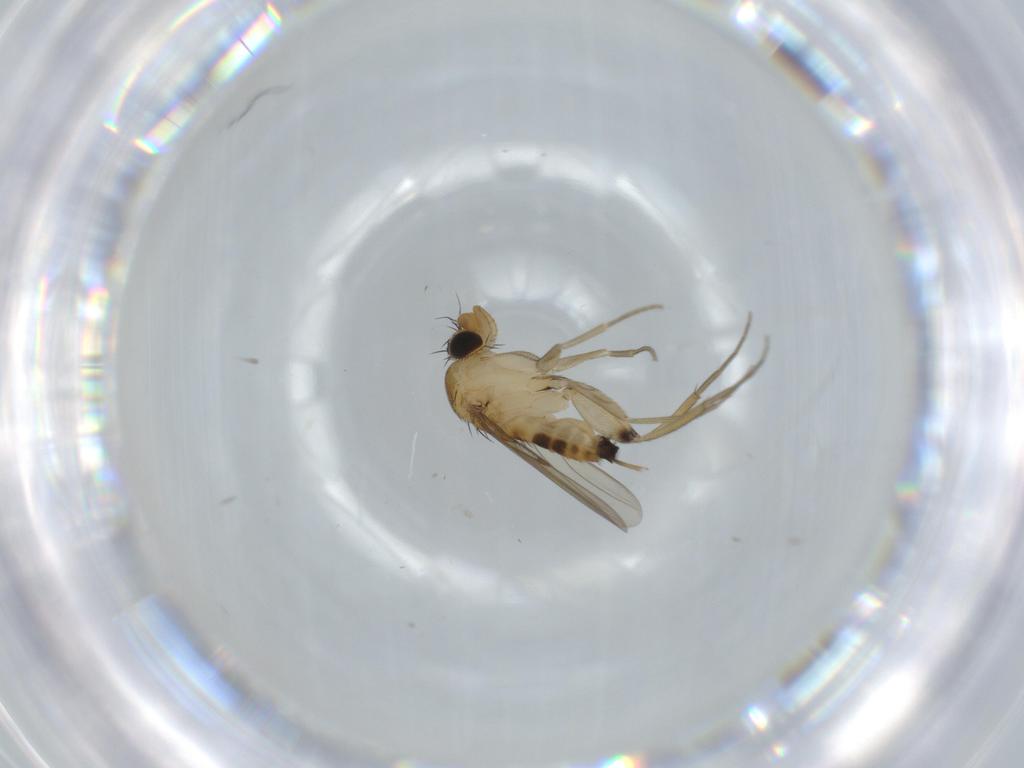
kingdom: Animalia
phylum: Arthropoda
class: Insecta
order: Diptera
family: Phoridae
